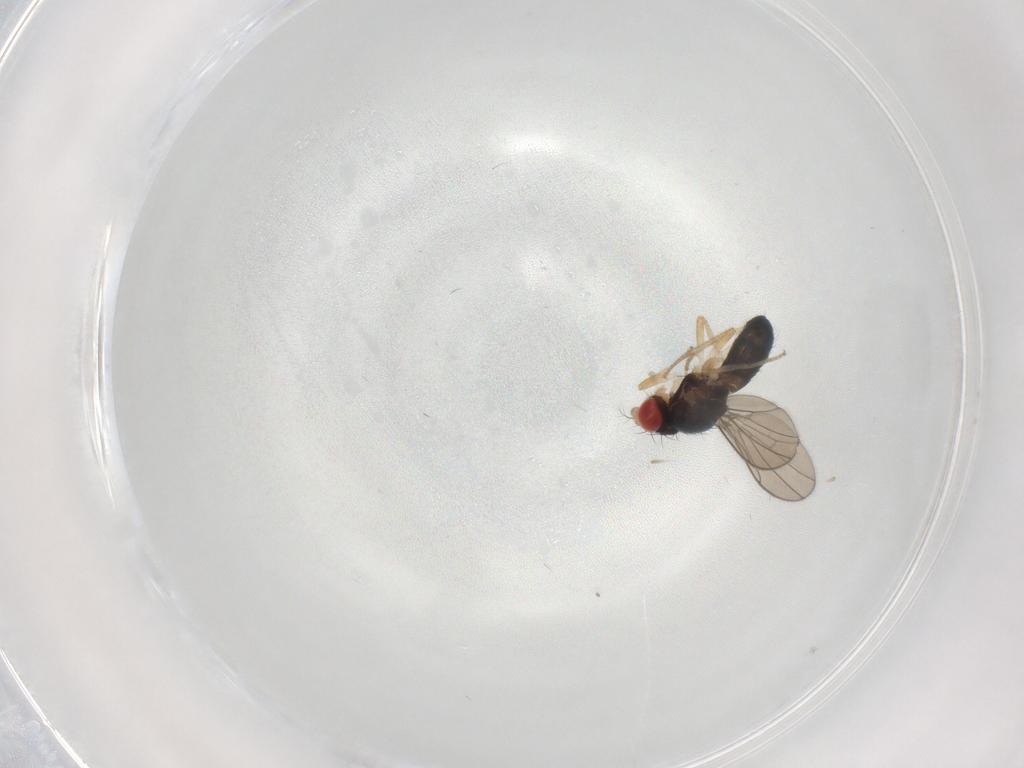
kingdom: Animalia
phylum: Arthropoda
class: Insecta
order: Diptera
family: Drosophilidae
